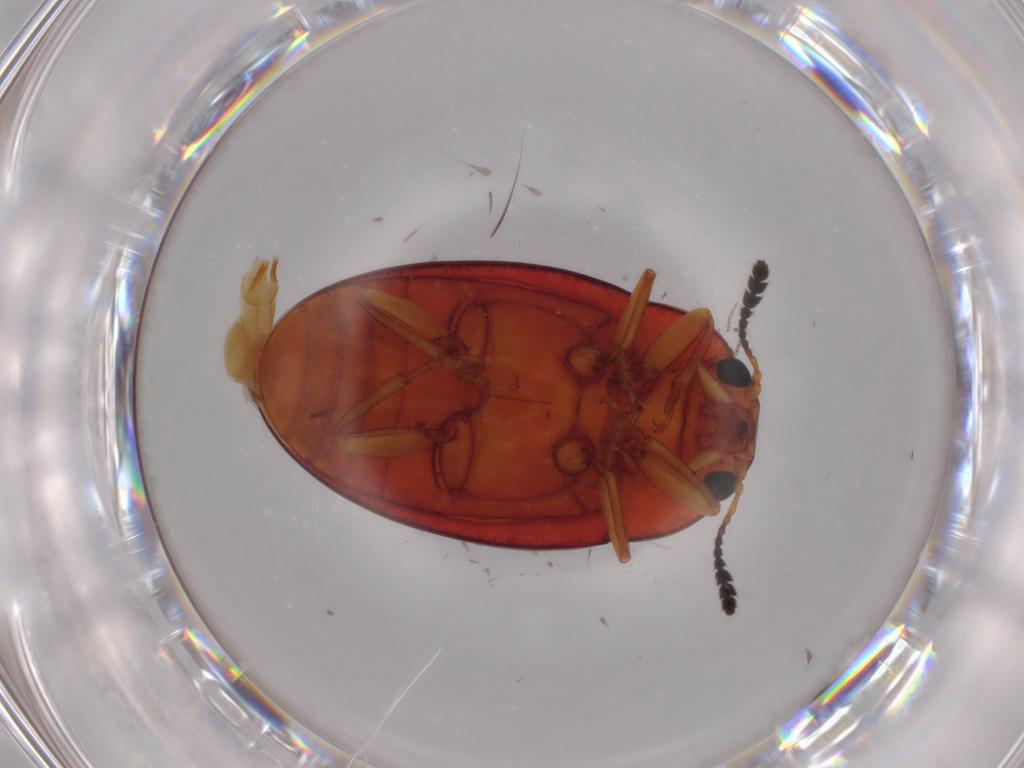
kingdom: Animalia
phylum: Arthropoda
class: Insecta
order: Coleoptera
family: Erotylidae
